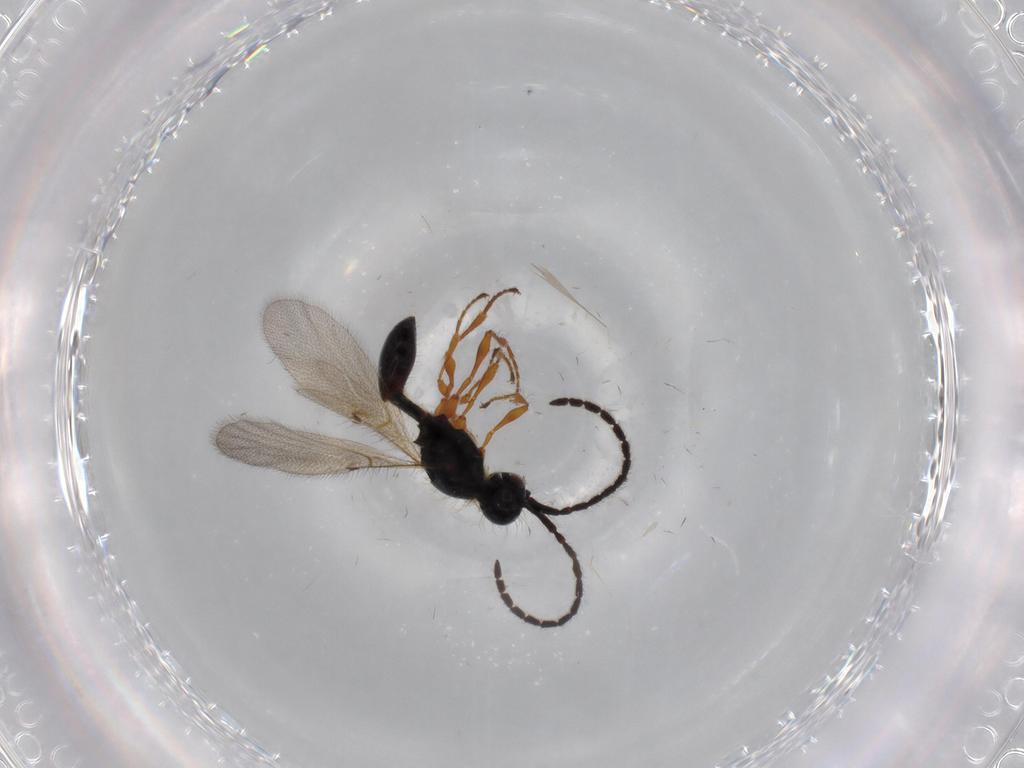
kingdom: Animalia
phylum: Arthropoda
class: Insecta
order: Hymenoptera
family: Diapriidae
